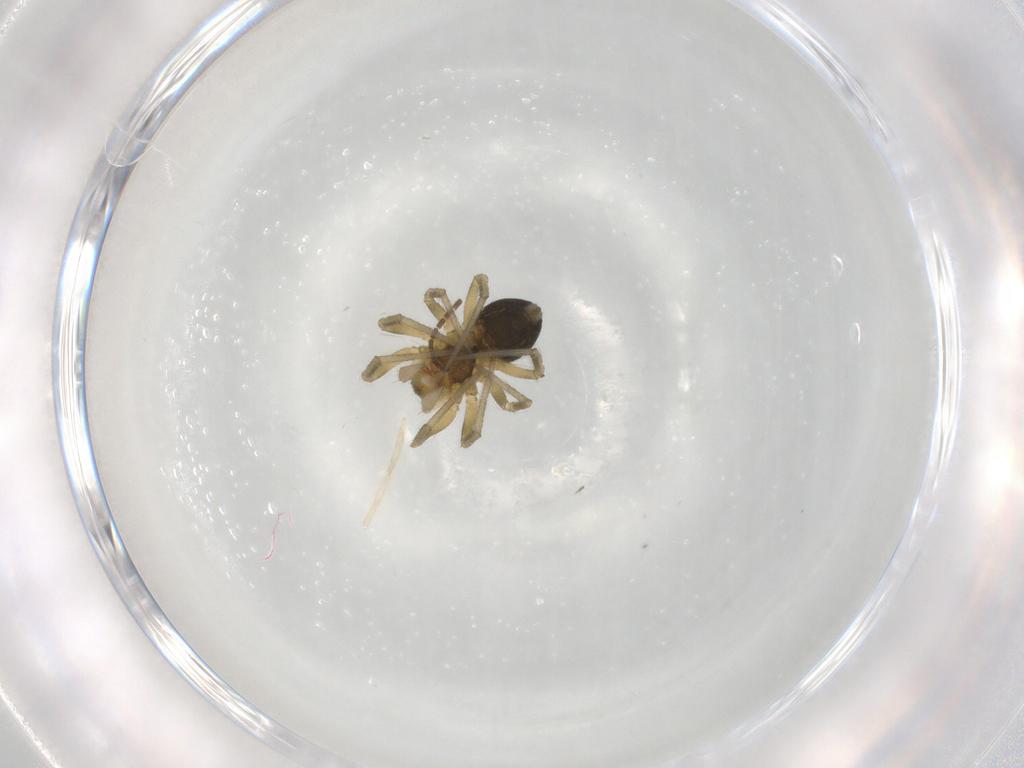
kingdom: Animalia
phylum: Arthropoda
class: Arachnida
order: Araneae
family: Linyphiidae
